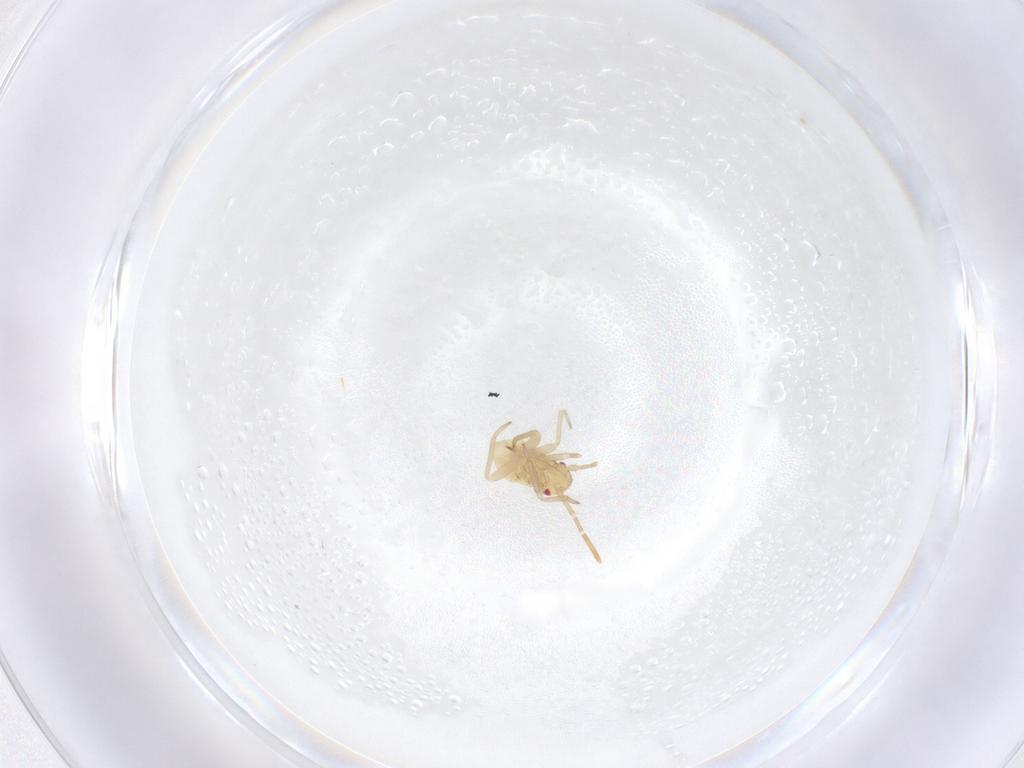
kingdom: Animalia
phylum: Arthropoda
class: Insecta
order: Hemiptera
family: Miridae
